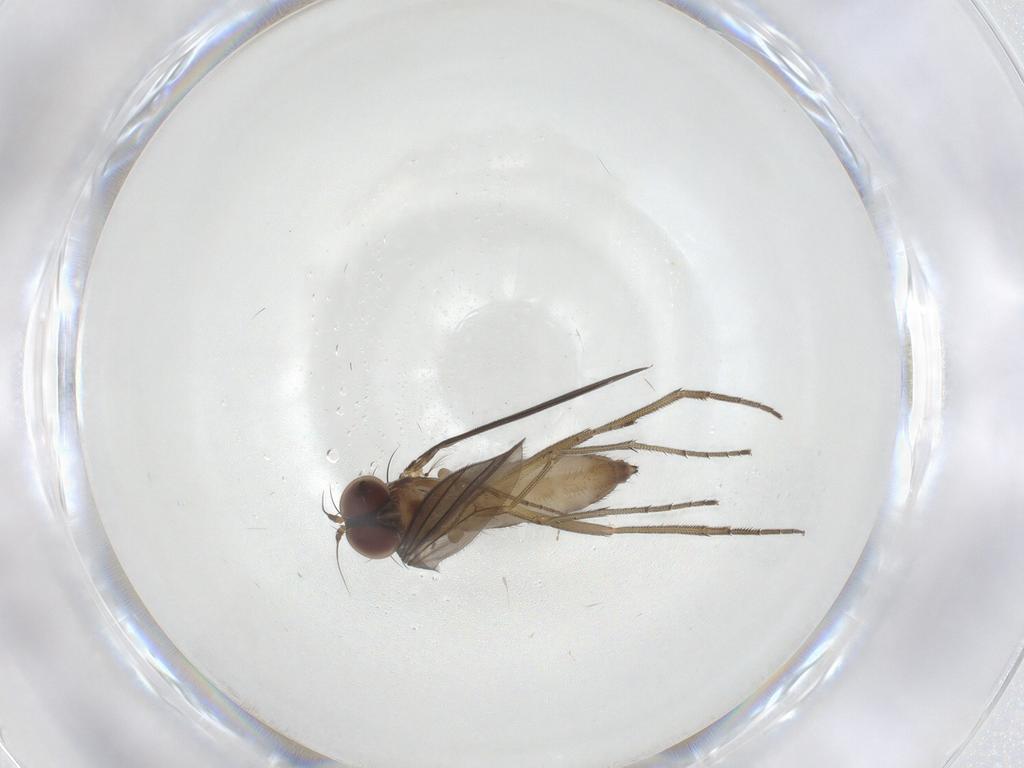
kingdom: Animalia
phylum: Arthropoda
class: Insecta
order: Diptera
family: Dolichopodidae
